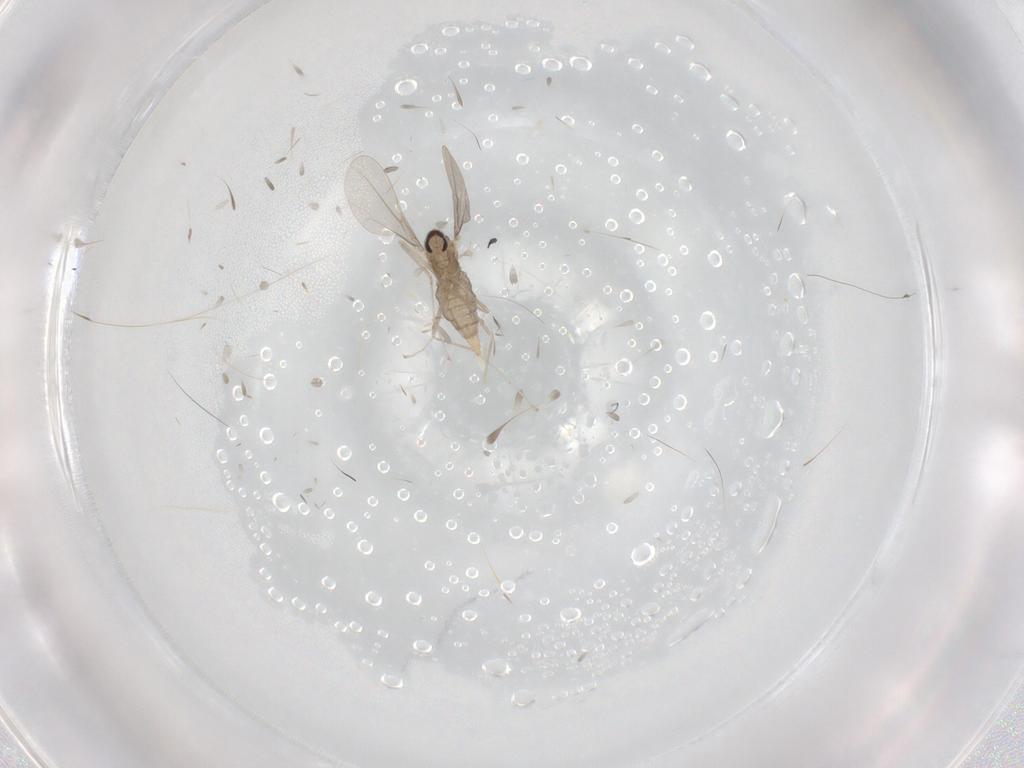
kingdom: Animalia
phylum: Arthropoda
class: Insecta
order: Diptera
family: Cecidomyiidae
